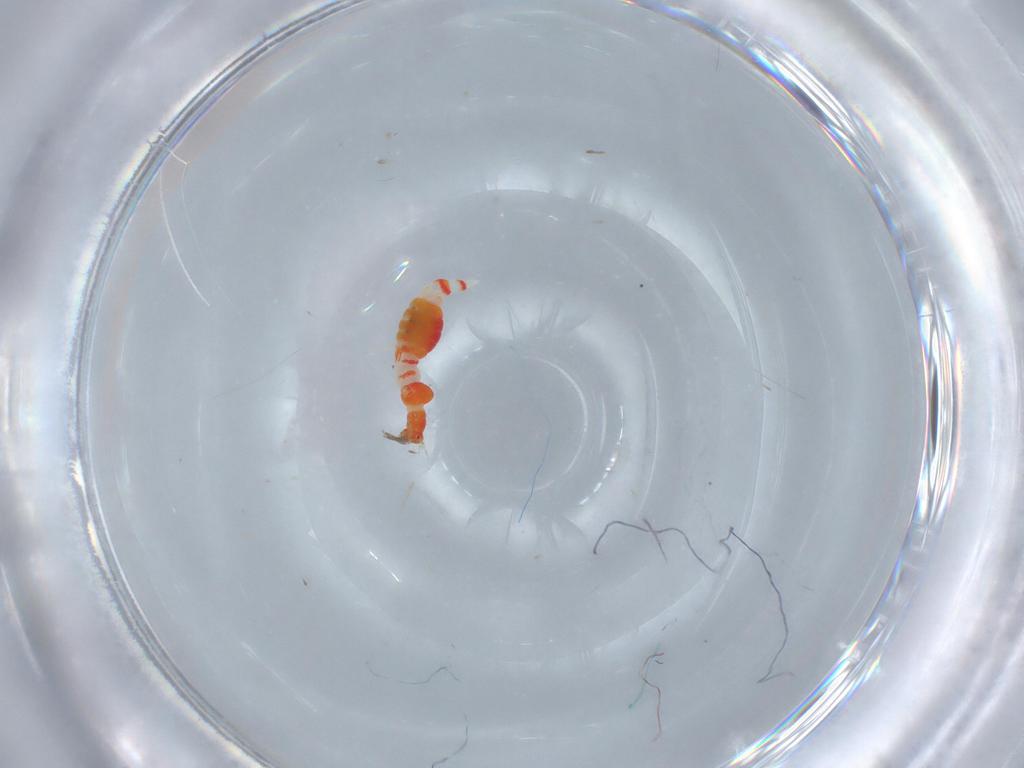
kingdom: Animalia
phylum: Arthropoda
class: Insecta
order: Thysanoptera
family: Phlaeothripidae
